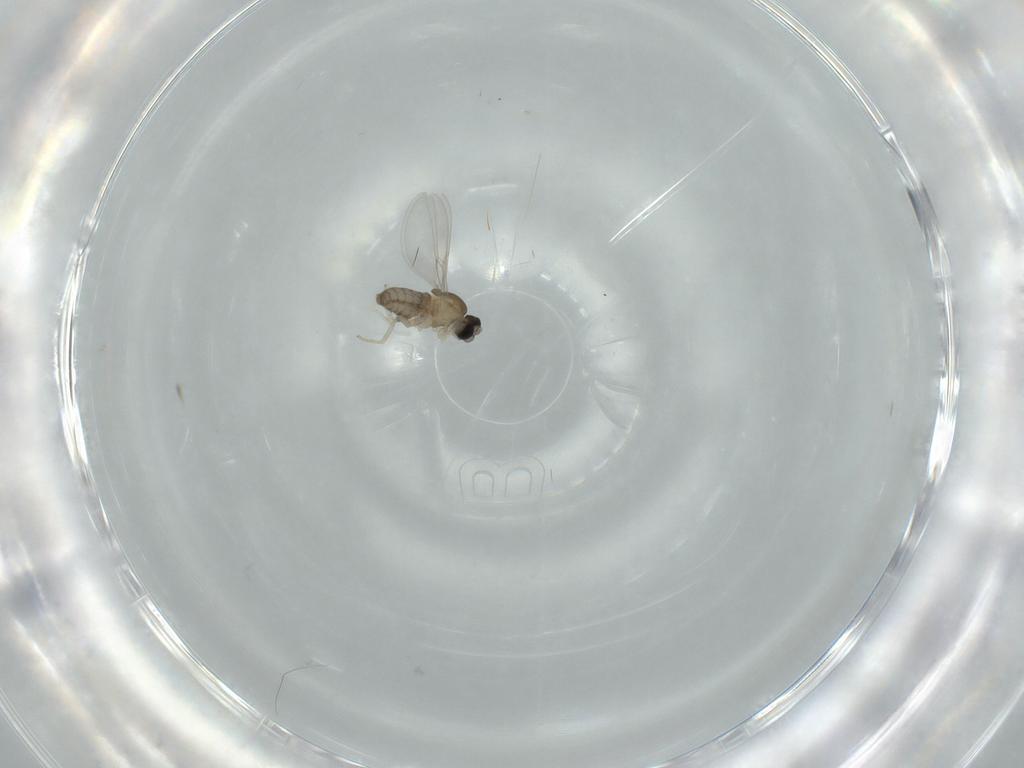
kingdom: Animalia
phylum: Arthropoda
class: Insecta
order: Diptera
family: Cecidomyiidae
